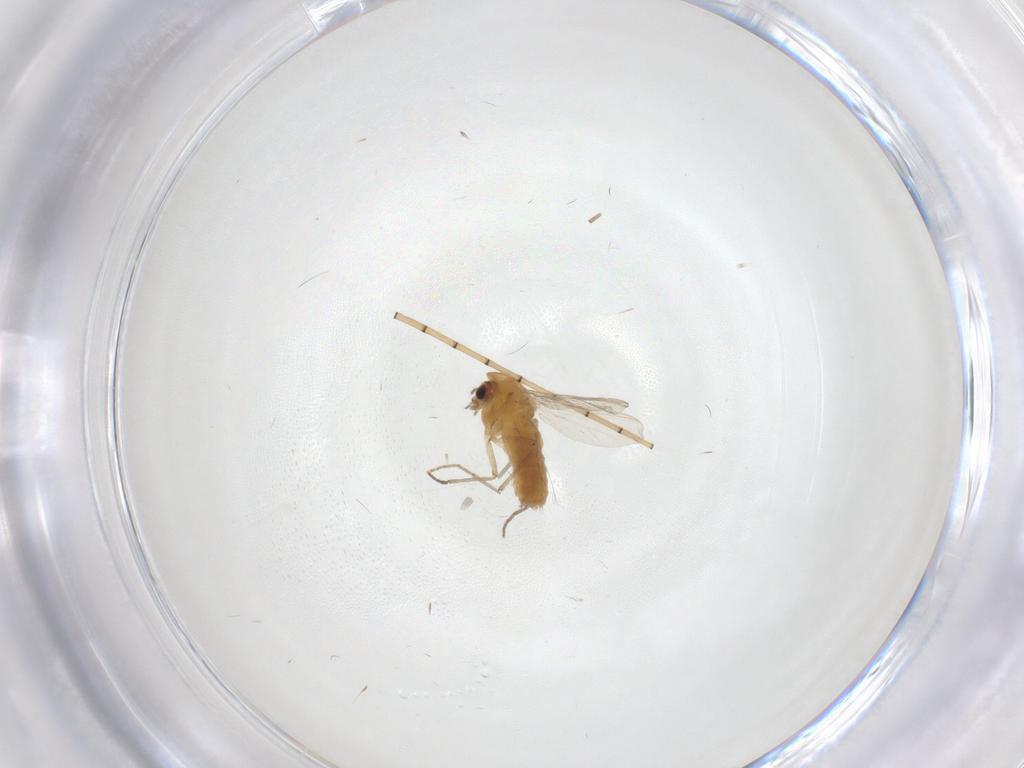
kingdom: Animalia
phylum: Arthropoda
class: Insecta
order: Diptera
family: Chironomidae
